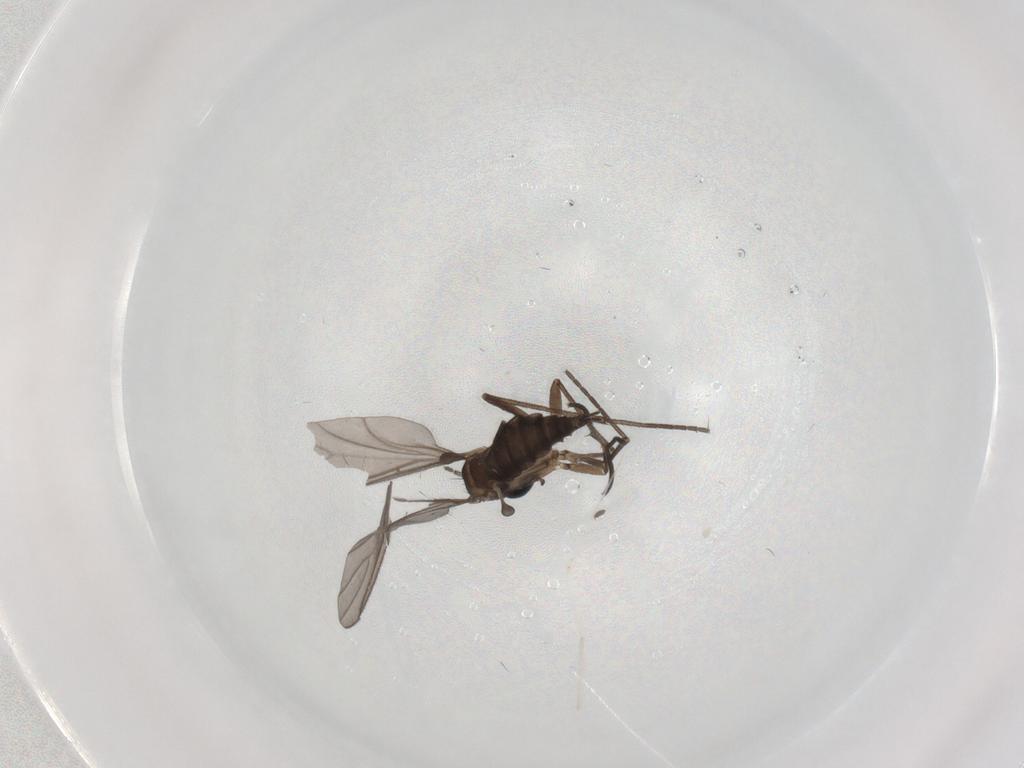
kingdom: Animalia
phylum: Arthropoda
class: Insecta
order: Diptera
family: Sciaridae
